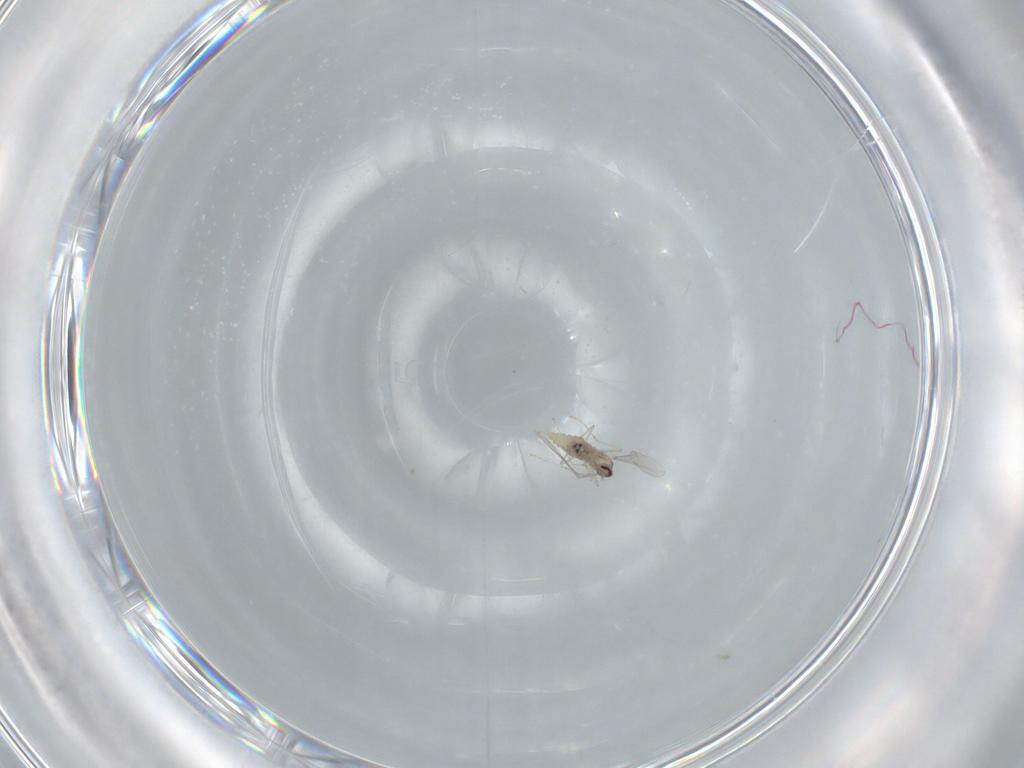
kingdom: Animalia
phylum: Arthropoda
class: Insecta
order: Diptera
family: Cecidomyiidae
